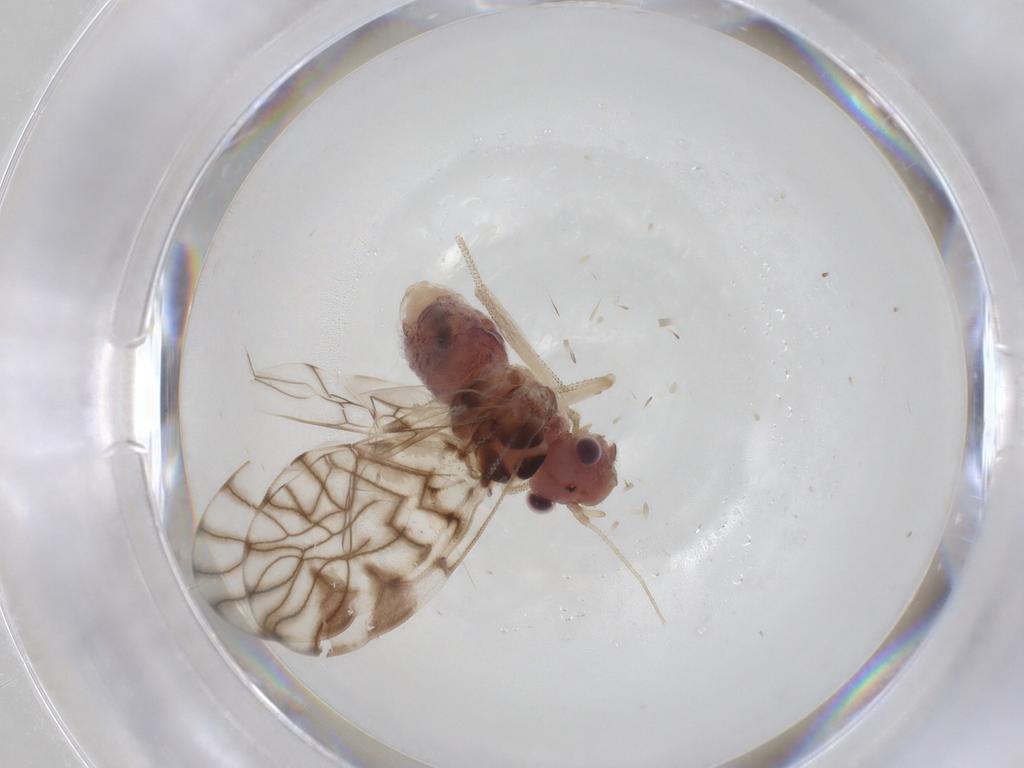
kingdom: Animalia
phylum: Arthropoda
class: Insecta
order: Psocodea
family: Amphipsocidae
